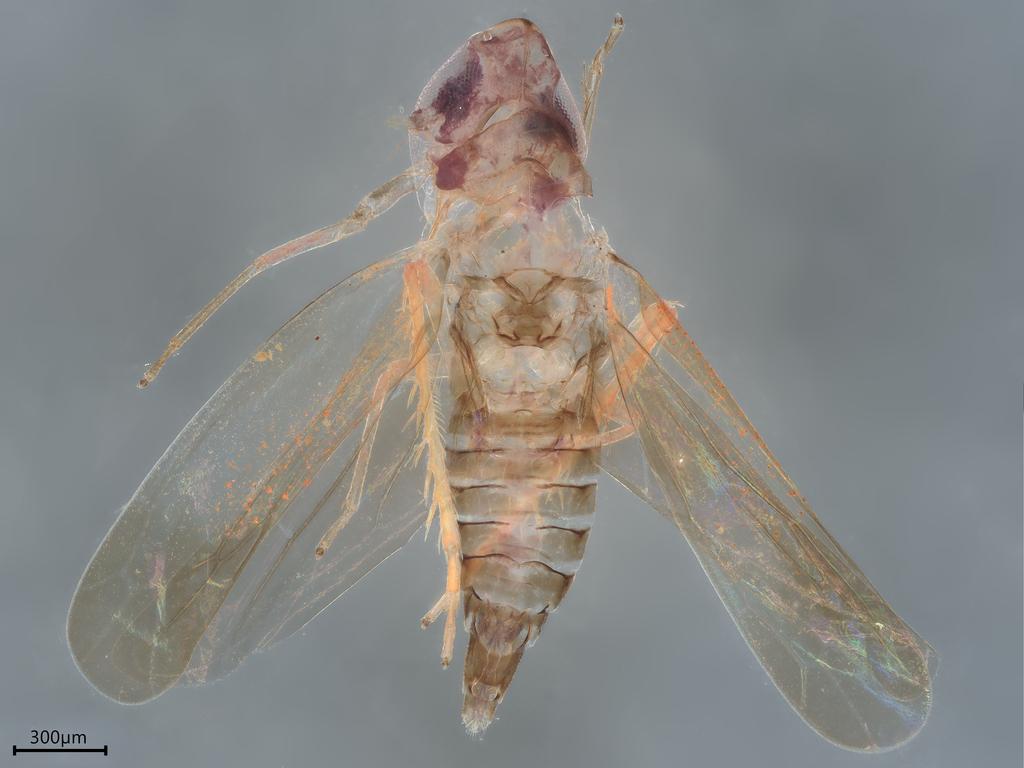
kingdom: Animalia
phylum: Arthropoda
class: Insecta
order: Hemiptera
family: Cicadellidae
